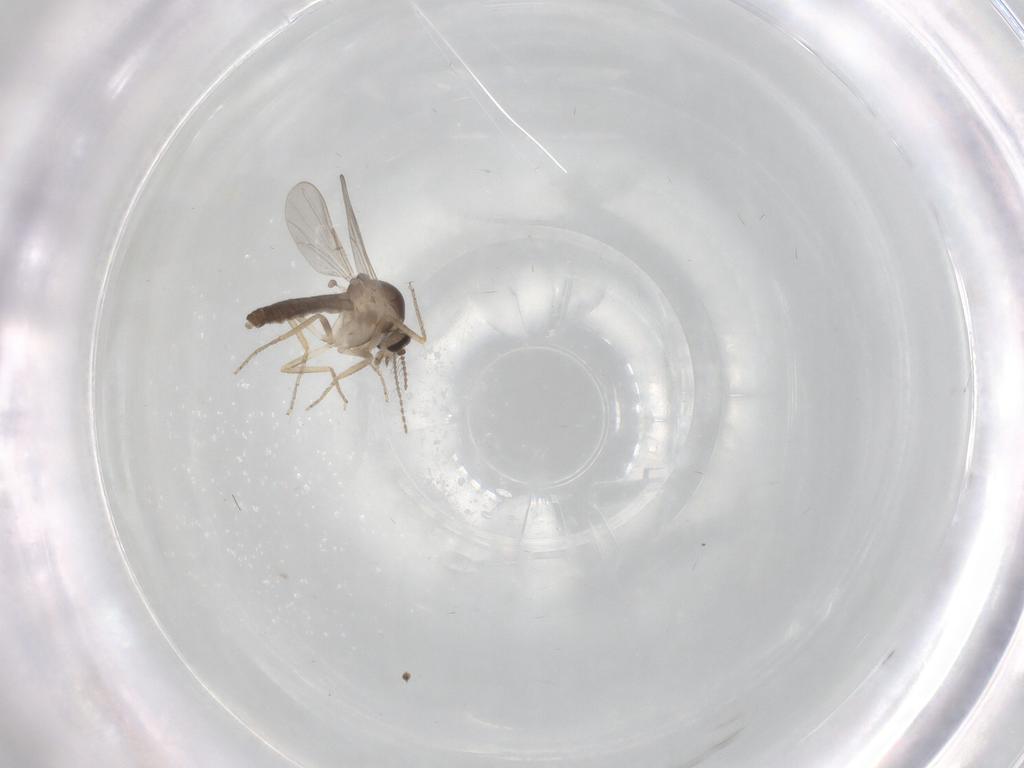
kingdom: Animalia
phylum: Arthropoda
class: Insecta
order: Diptera
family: Cecidomyiidae
